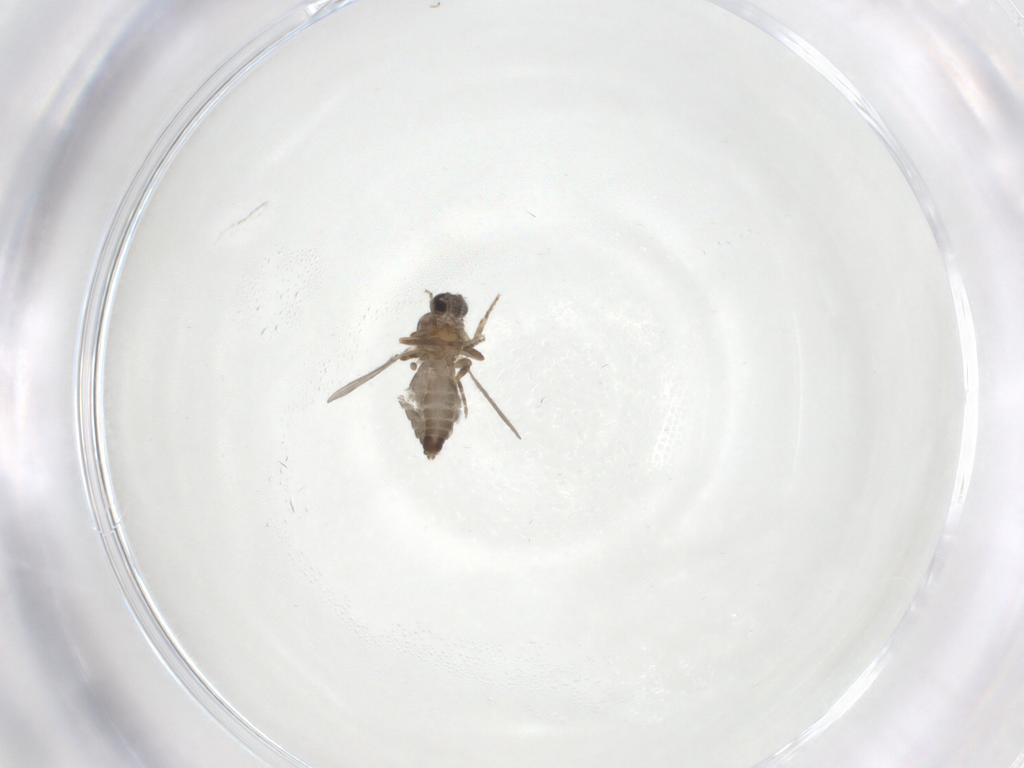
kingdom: Animalia
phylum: Arthropoda
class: Insecta
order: Diptera
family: Ceratopogonidae
